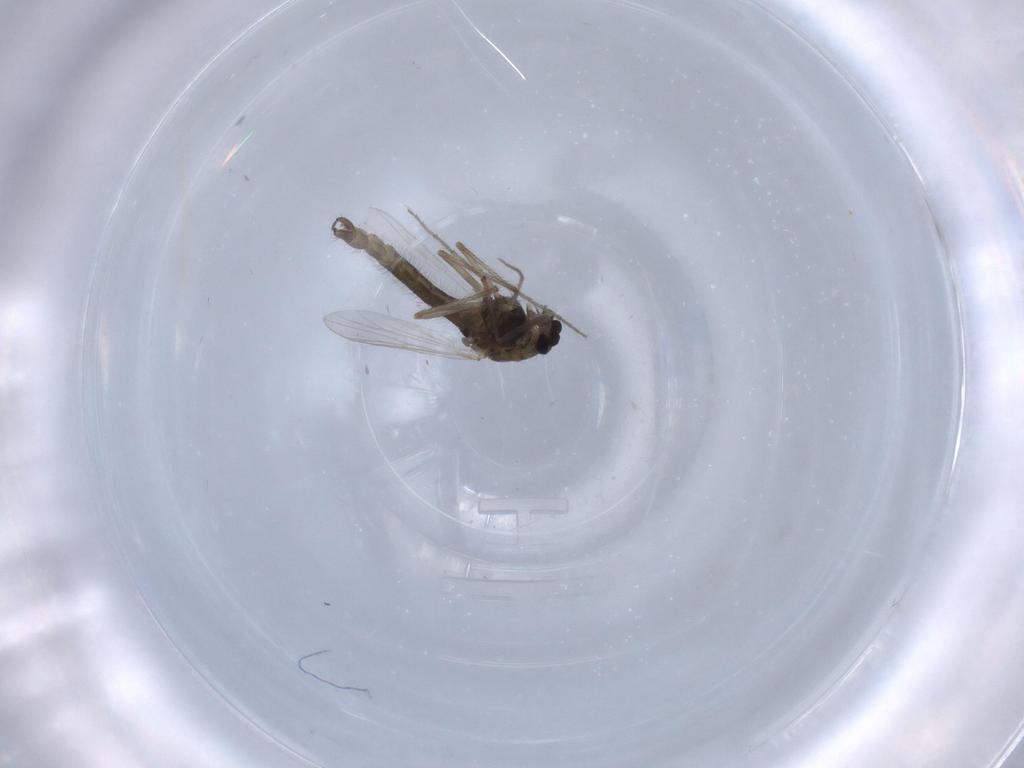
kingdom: Animalia
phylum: Arthropoda
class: Insecta
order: Diptera
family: Chironomidae
